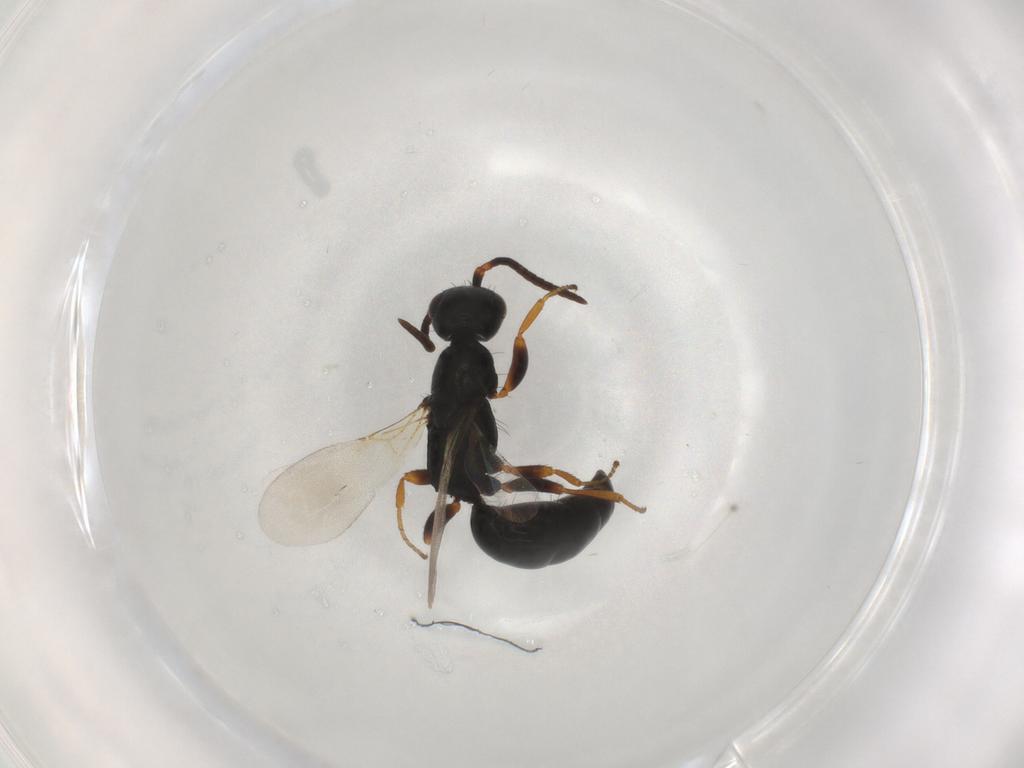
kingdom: Animalia
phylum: Arthropoda
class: Insecta
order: Hymenoptera
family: Bethylidae
